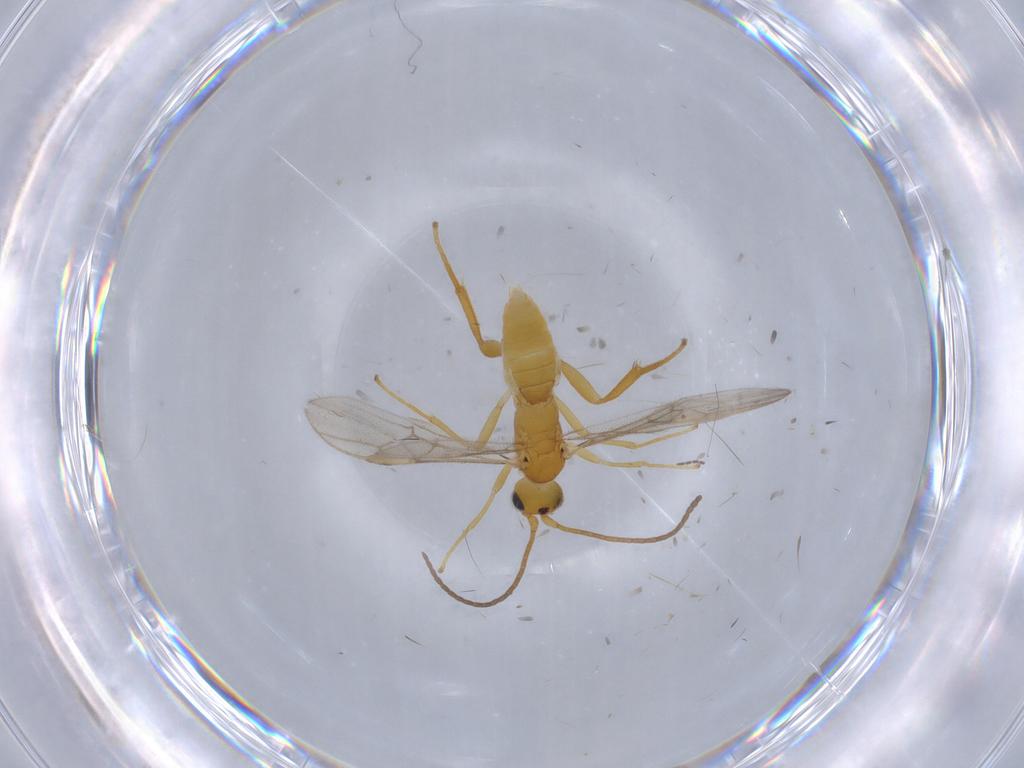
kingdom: Animalia
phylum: Arthropoda
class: Insecta
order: Hymenoptera
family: Braconidae
